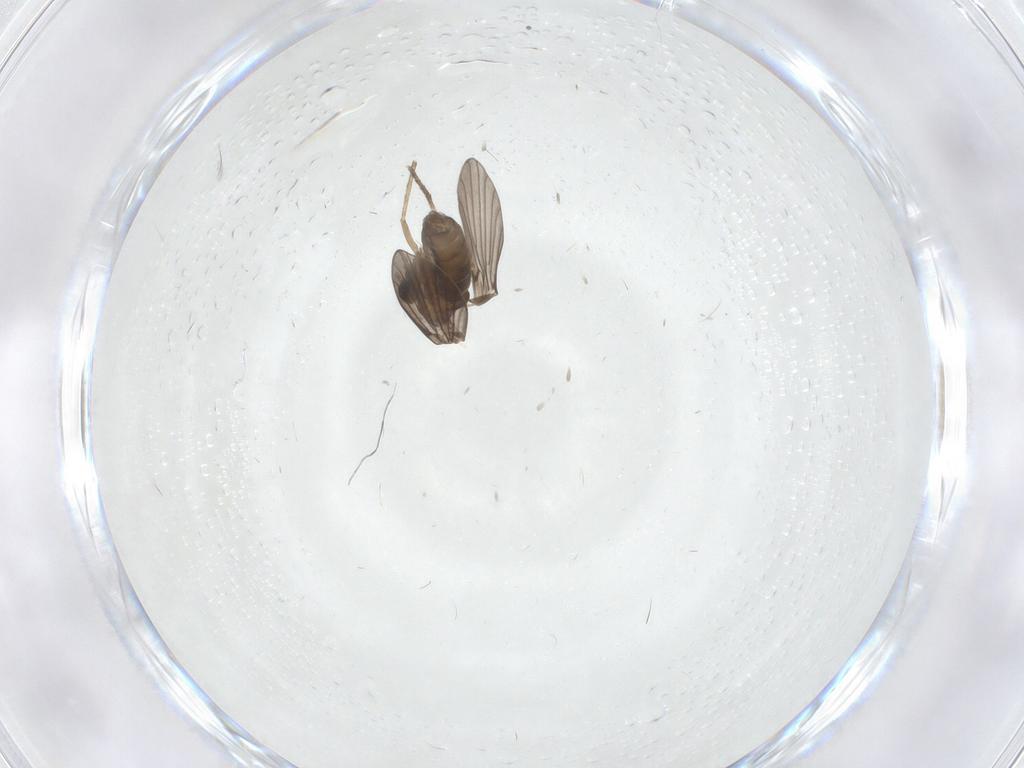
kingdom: Animalia
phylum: Arthropoda
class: Insecta
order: Diptera
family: Psychodidae
